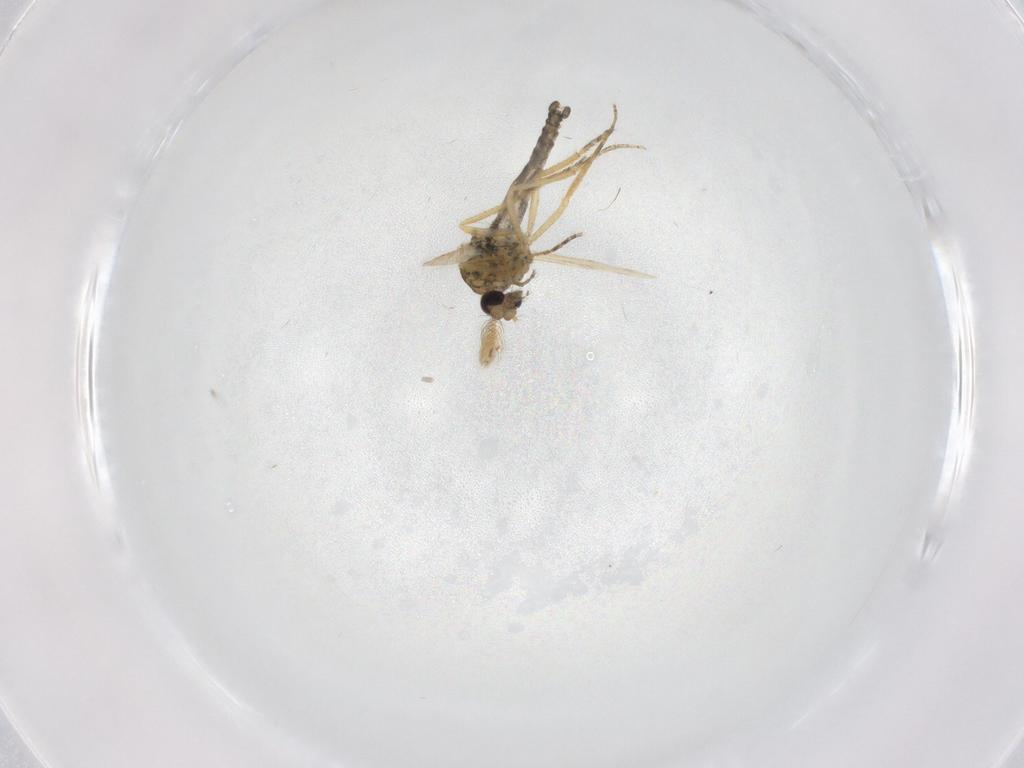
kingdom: Animalia
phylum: Arthropoda
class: Insecta
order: Diptera
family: Ceratopogonidae
